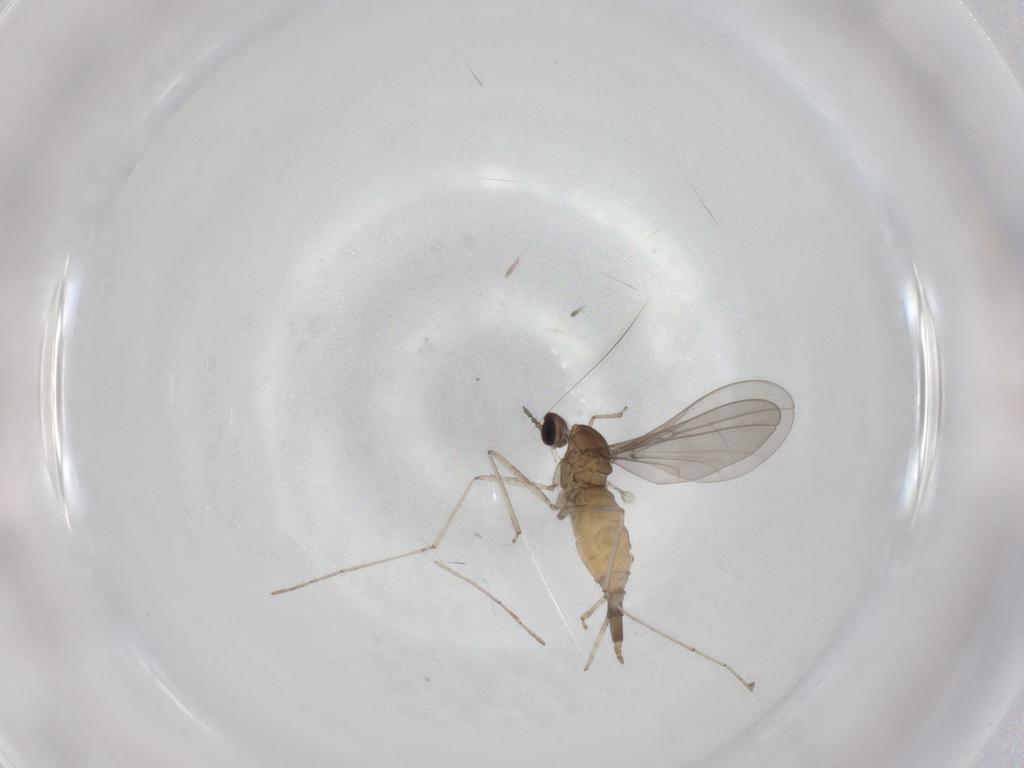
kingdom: Animalia
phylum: Arthropoda
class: Insecta
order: Diptera
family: Cecidomyiidae
